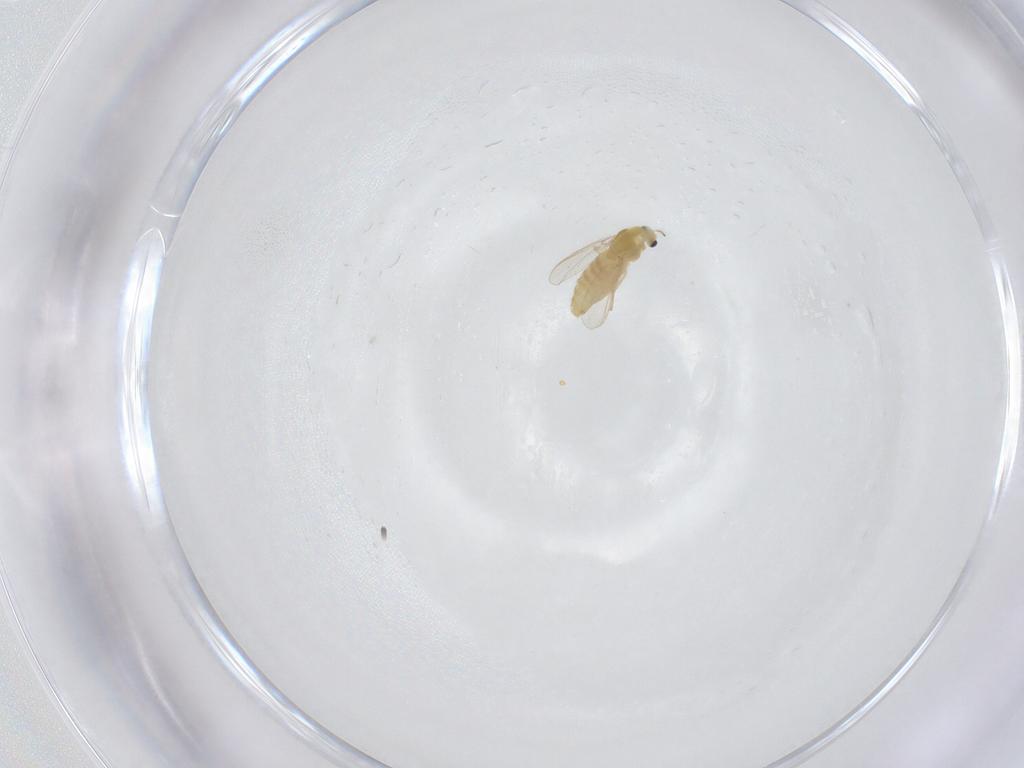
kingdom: Animalia
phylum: Arthropoda
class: Insecta
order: Diptera
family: Chironomidae
